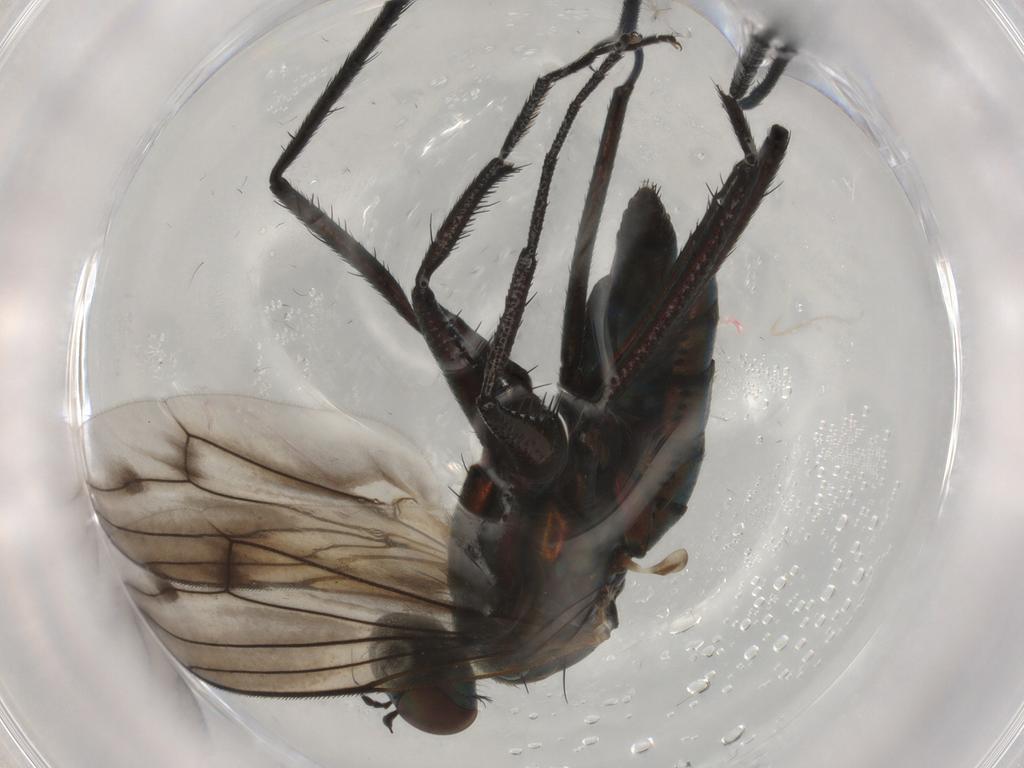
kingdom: Animalia
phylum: Arthropoda
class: Insecta
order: Diptera
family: Dolichopodidae
